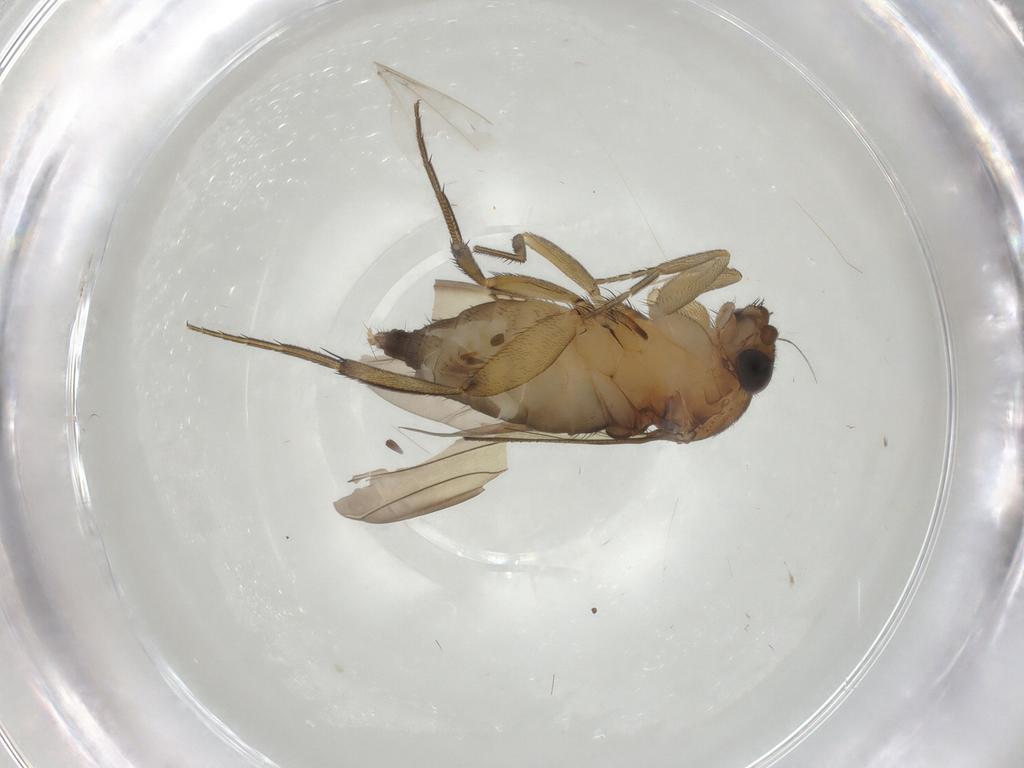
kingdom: Animalia
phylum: Arthropoda
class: Insecta
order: Diptera
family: Phoridae
